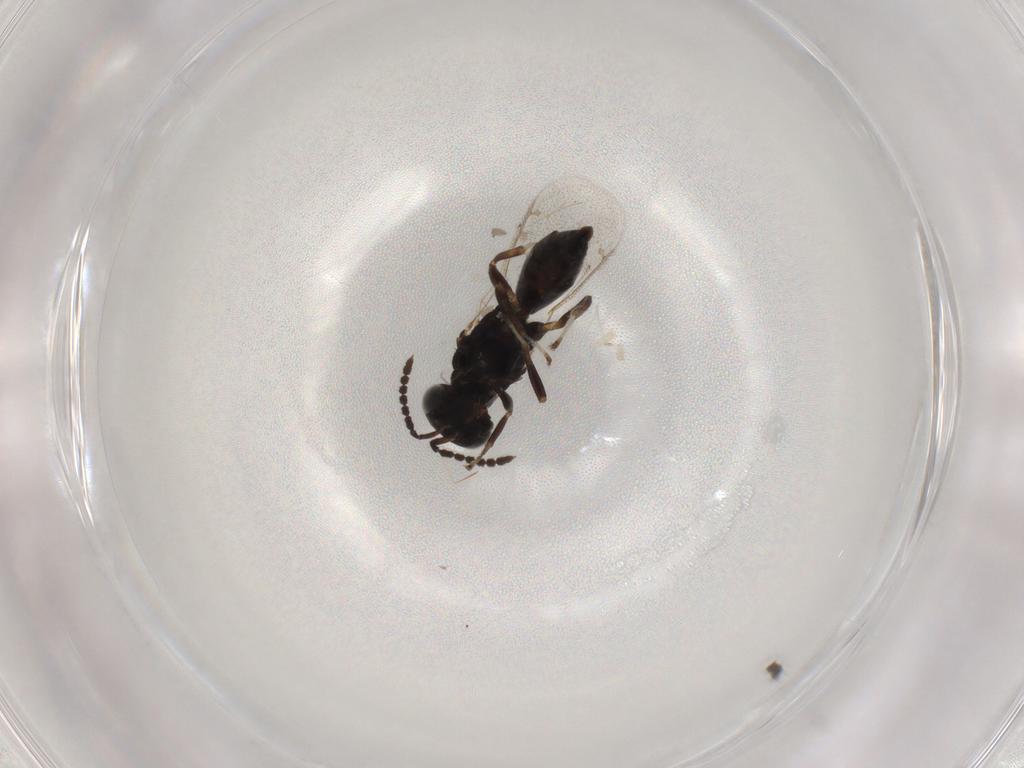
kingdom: Animalia
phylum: Arthropoda
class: Insecta
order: Hymenoptera
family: Eulophidae
